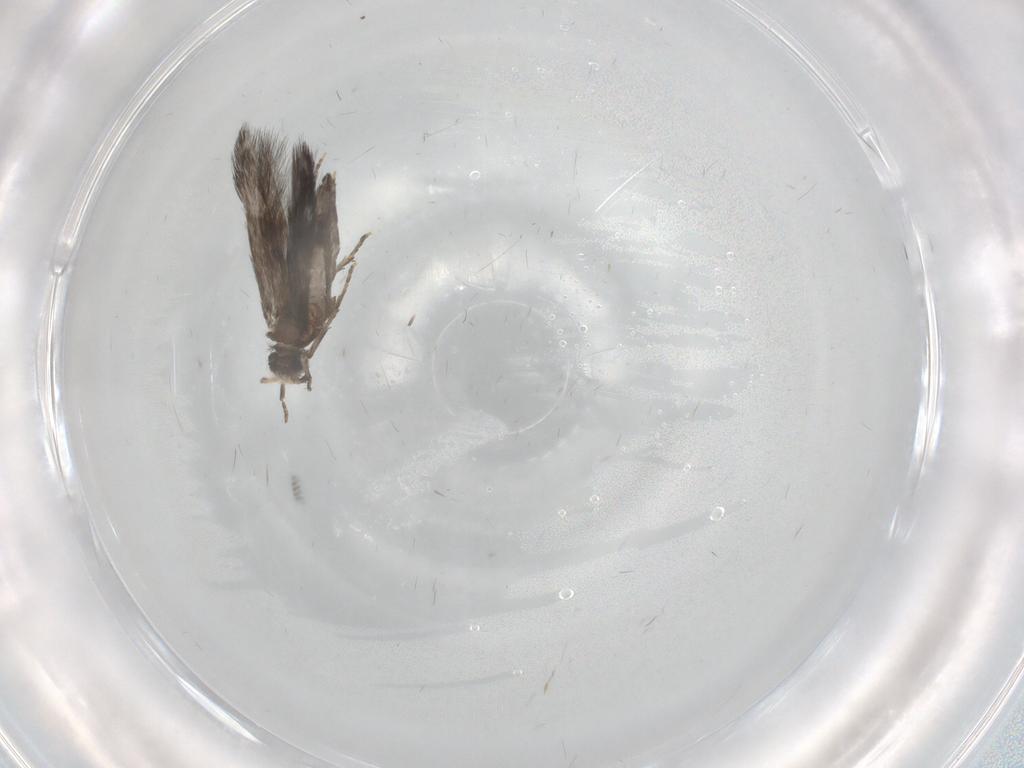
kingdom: Animalia
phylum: Arthropoda
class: Insecta
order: Trichoptera
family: Hydroptilidae
